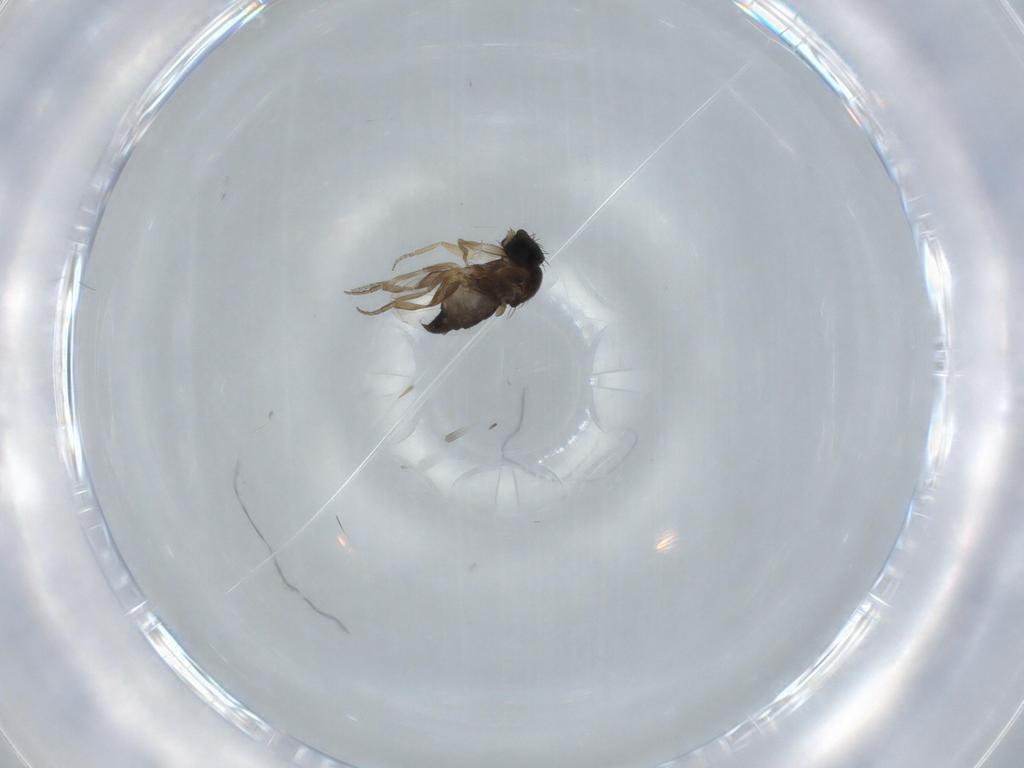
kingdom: Animalia
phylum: Arthropoda
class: Insecta
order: Diptera
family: Phoridae
